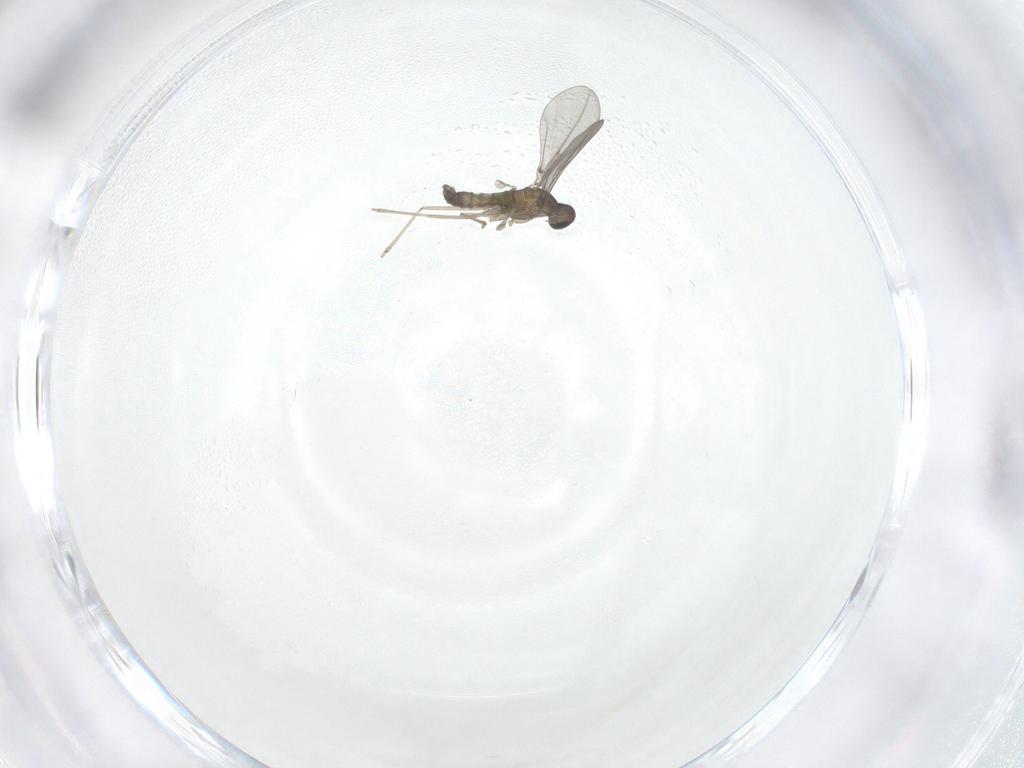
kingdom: Animalia
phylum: Arthropoda
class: Insecta
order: Diptera
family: Cecidomyiidae
